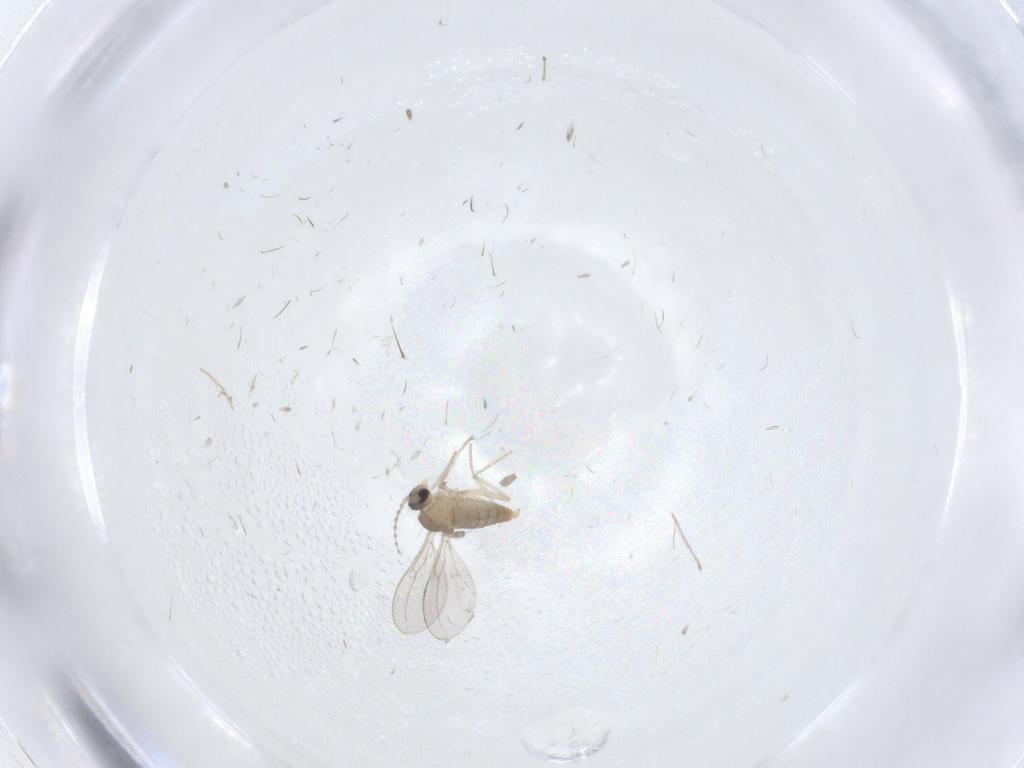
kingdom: Animalia
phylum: Arthropoda
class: Insecta
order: Diptera
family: Cecidomyiidae
